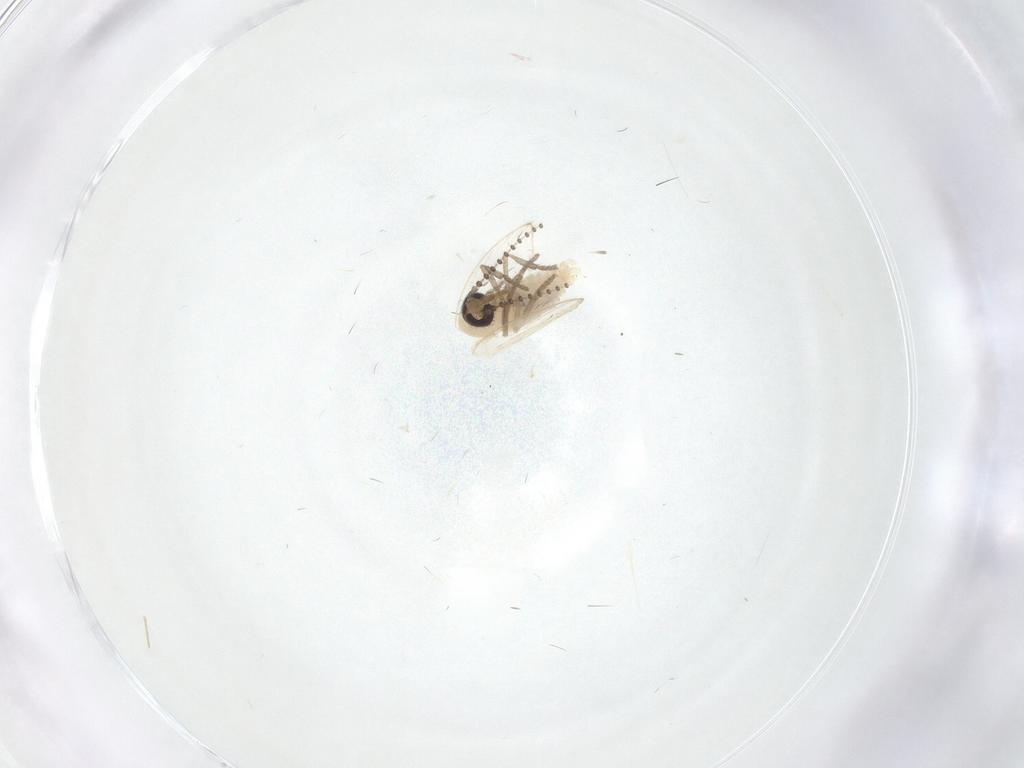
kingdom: Animalia
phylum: Arthropoda
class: Insecta
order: Diptera
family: Psychodidae
